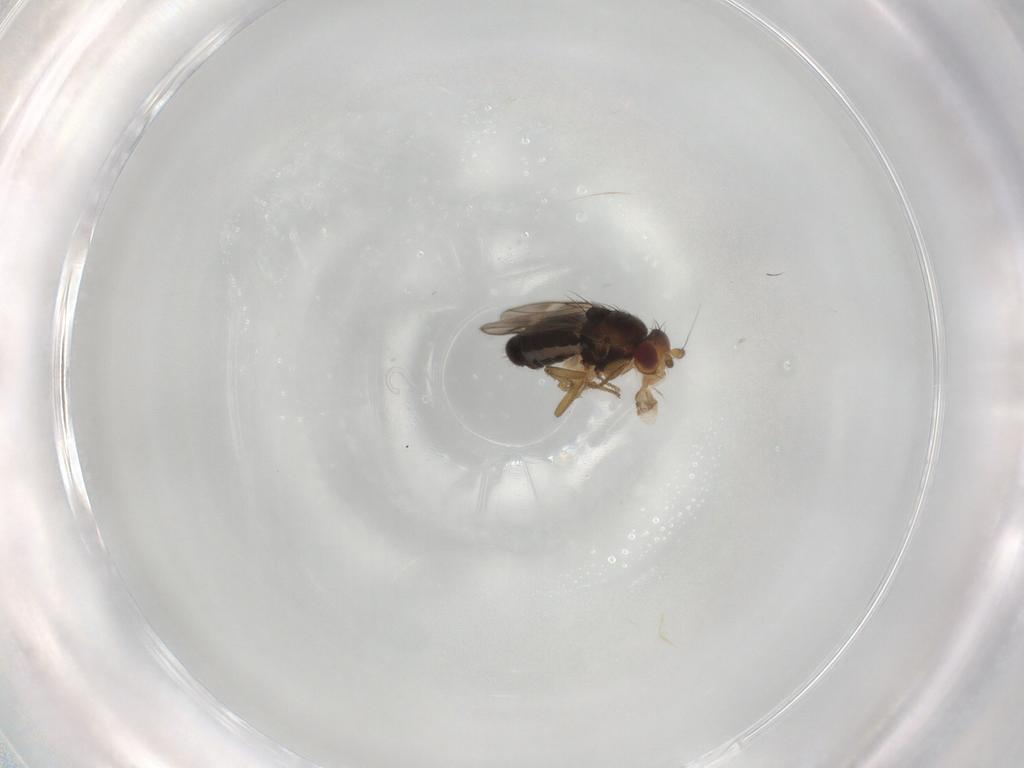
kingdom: Animalia
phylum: Arthropoda
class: Insecta
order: Diptera
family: Sphaeroceridae
